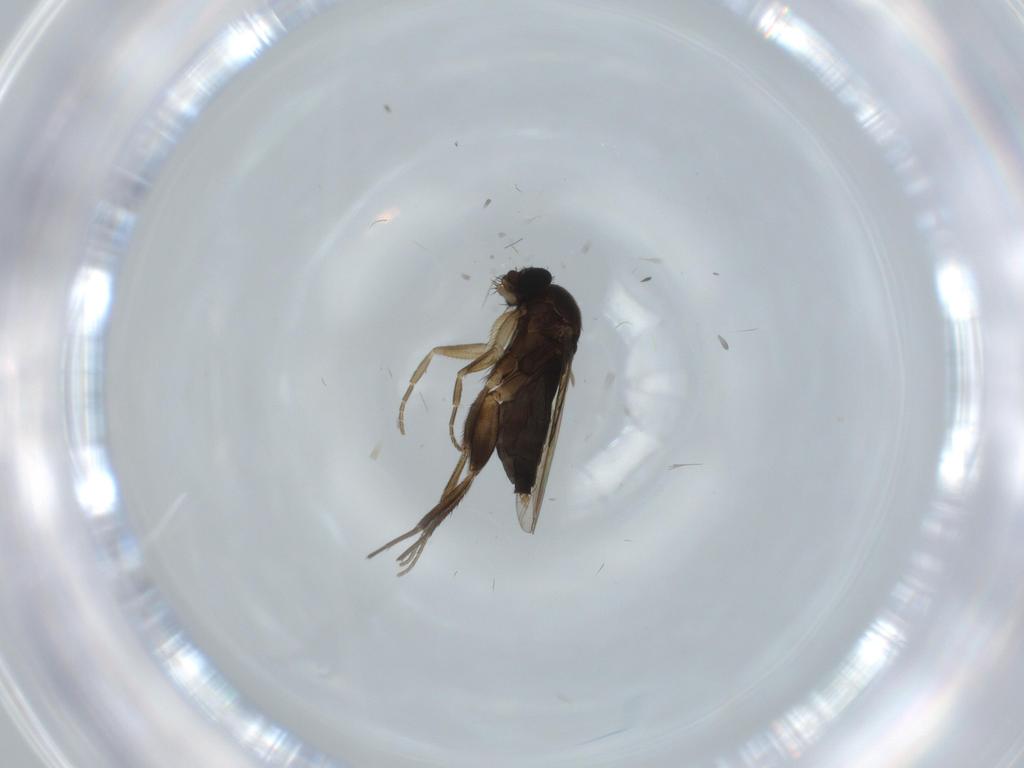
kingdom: Animalia
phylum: Arthropoda
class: Insecta
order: Diptera
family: Phoridae
